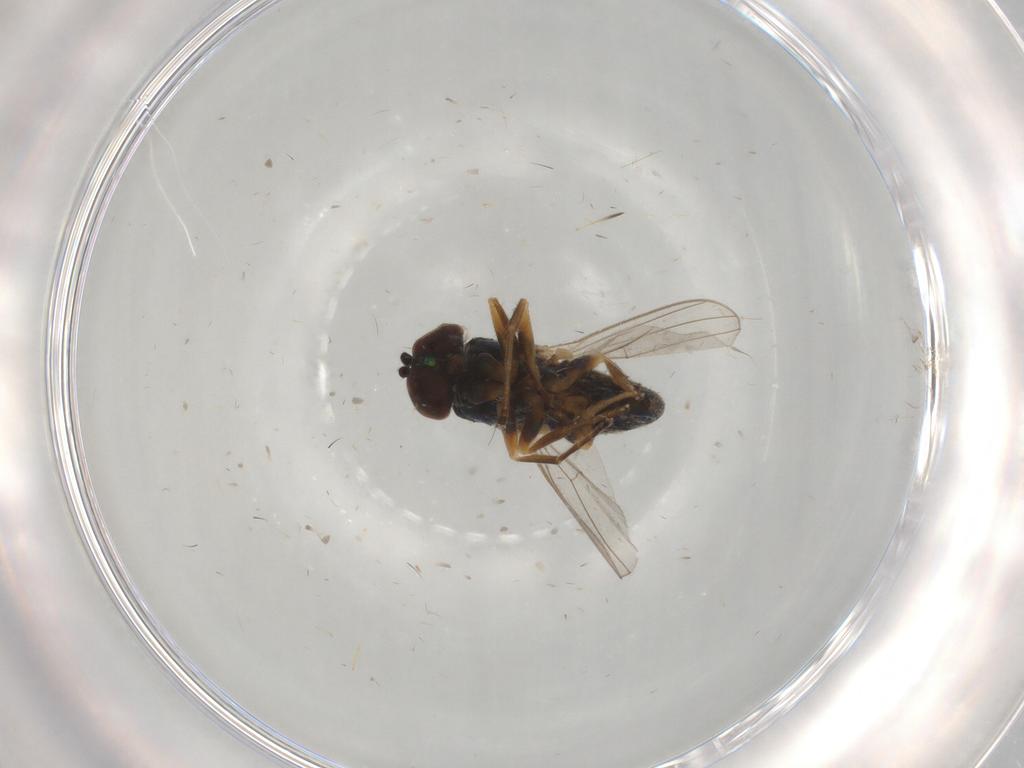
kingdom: Animalia
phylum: Arthropoda
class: Insecta
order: Diptera
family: Dolichopodidae
